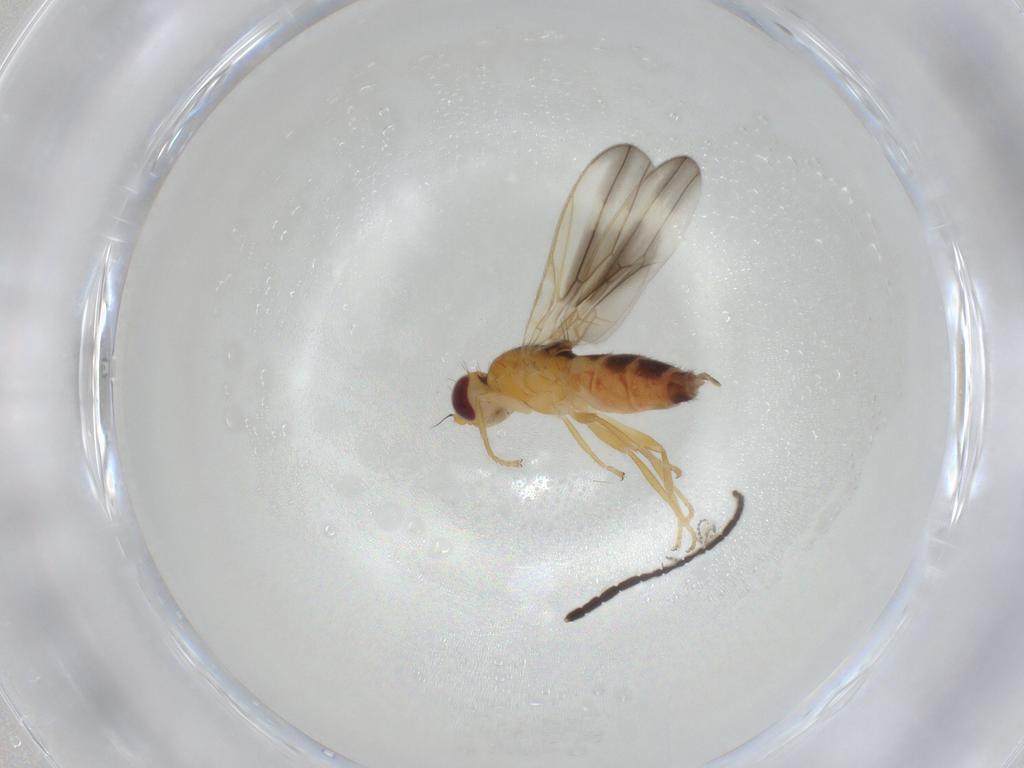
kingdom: Animalia
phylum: Arthropoda
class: Insecta
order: Diptera
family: Neurochaetidae
